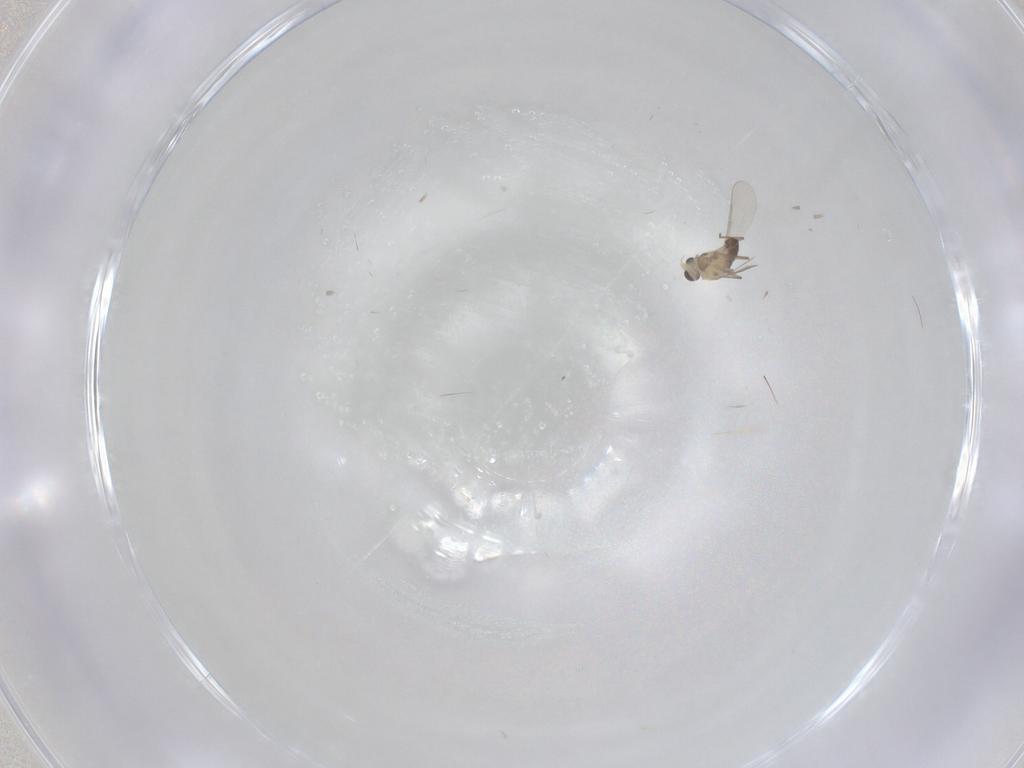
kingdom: Animalia
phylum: Arthropoda
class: Insecta
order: Diptera
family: Chironomidae
